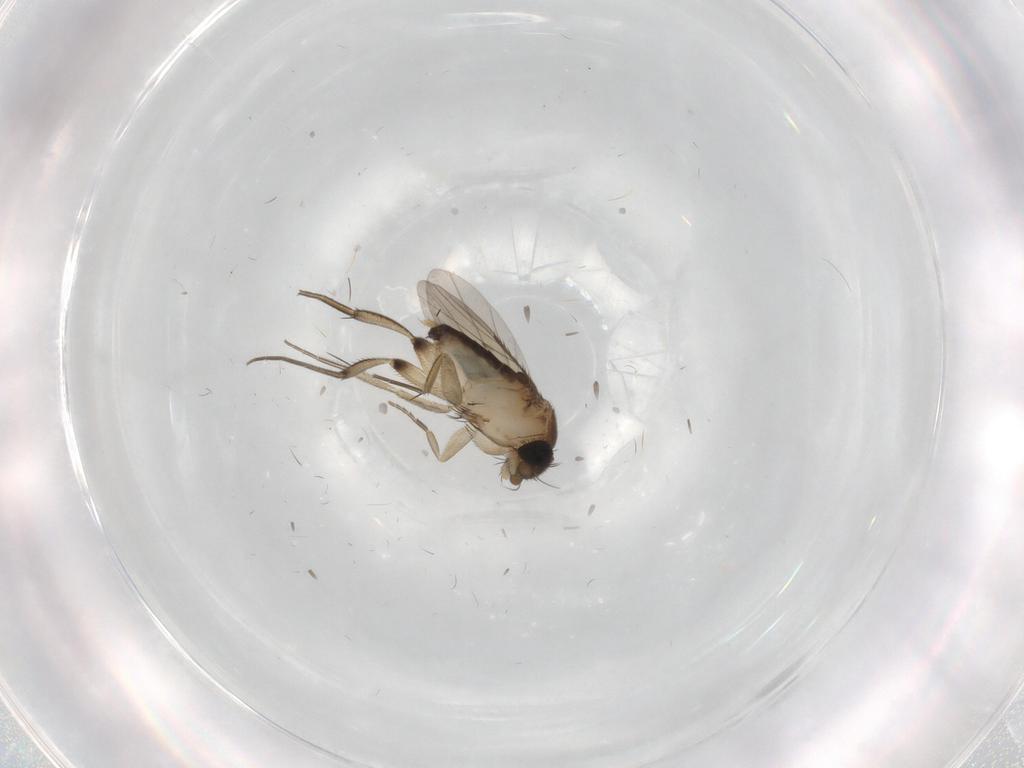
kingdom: Animalia
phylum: Arthropoda
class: Insecta
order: Diptera
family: Phoridae
